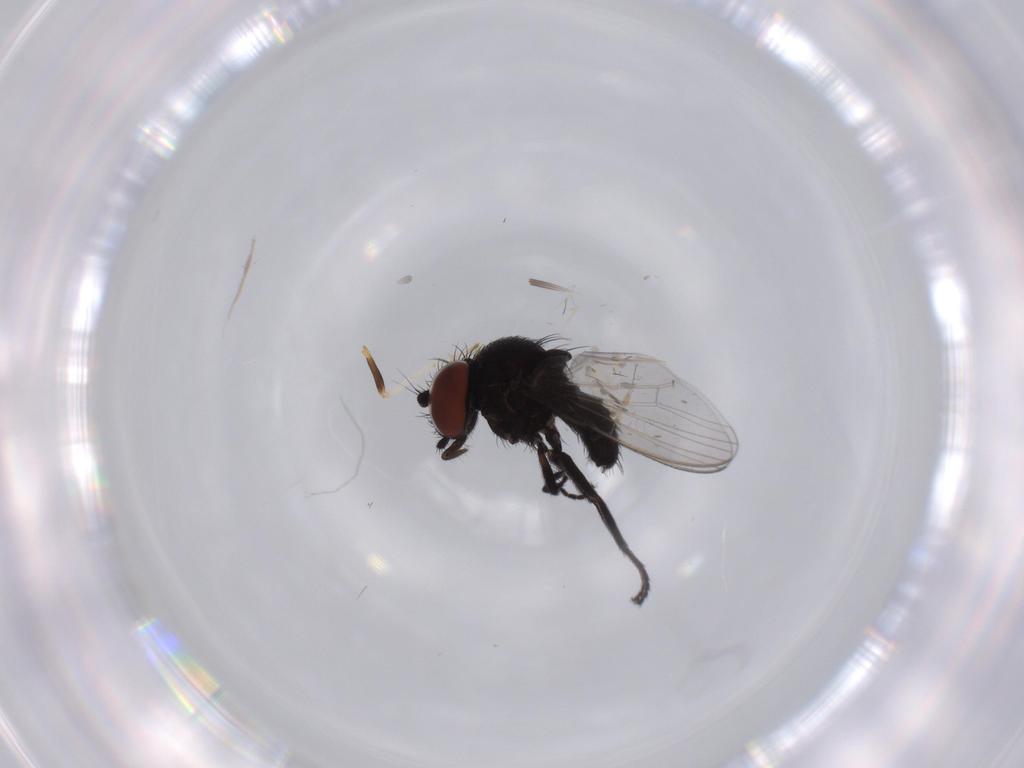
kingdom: Animalia
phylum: Arthropoda
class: Insecta
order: Diptera
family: Milichiidae
